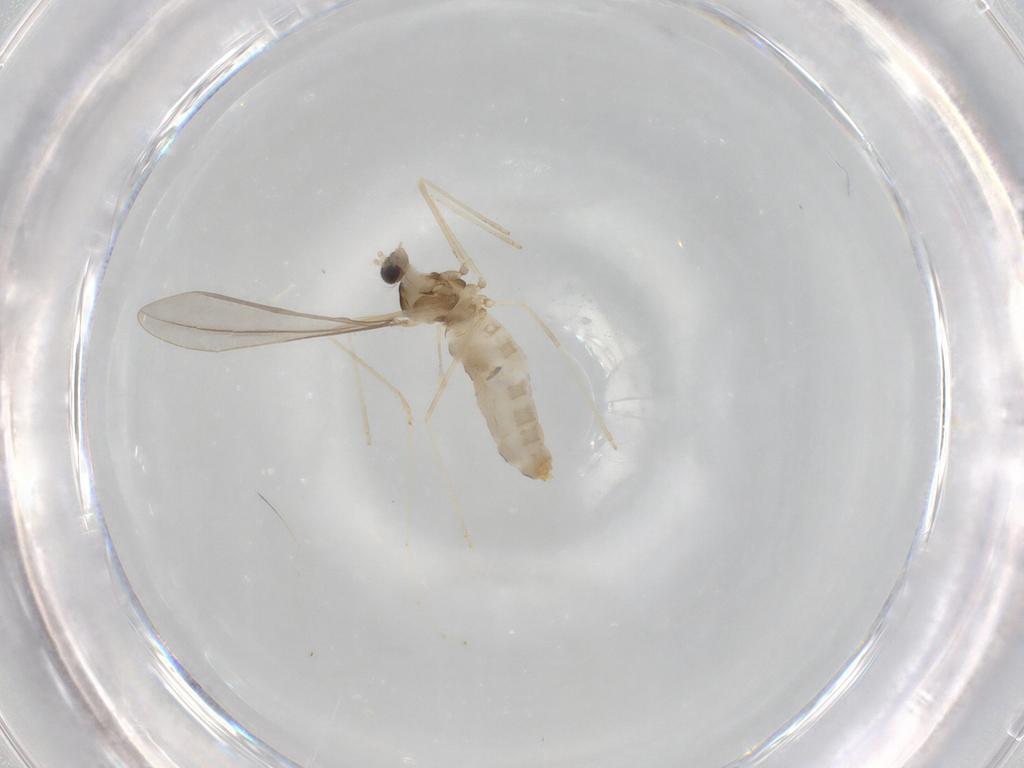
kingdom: Animalia
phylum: Arthropoda
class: Insecta
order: Diptera
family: Cecidomyiidae
